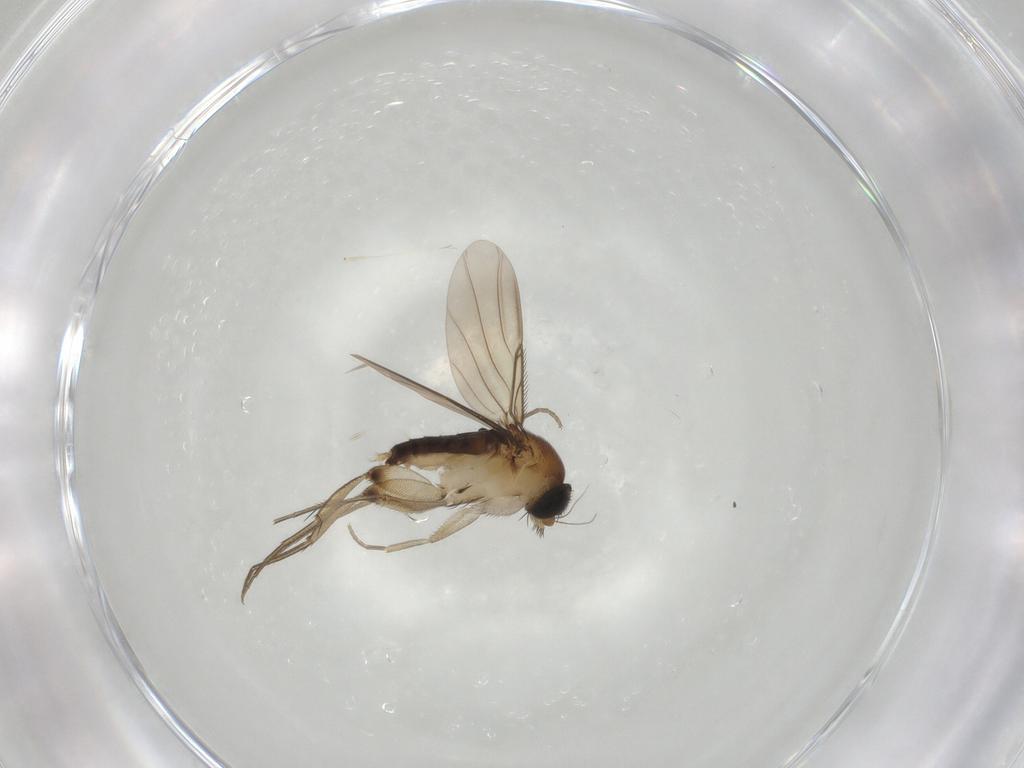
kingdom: Animalia
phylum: Arthropoda
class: Insecta
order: Diptera
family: Phoridae
